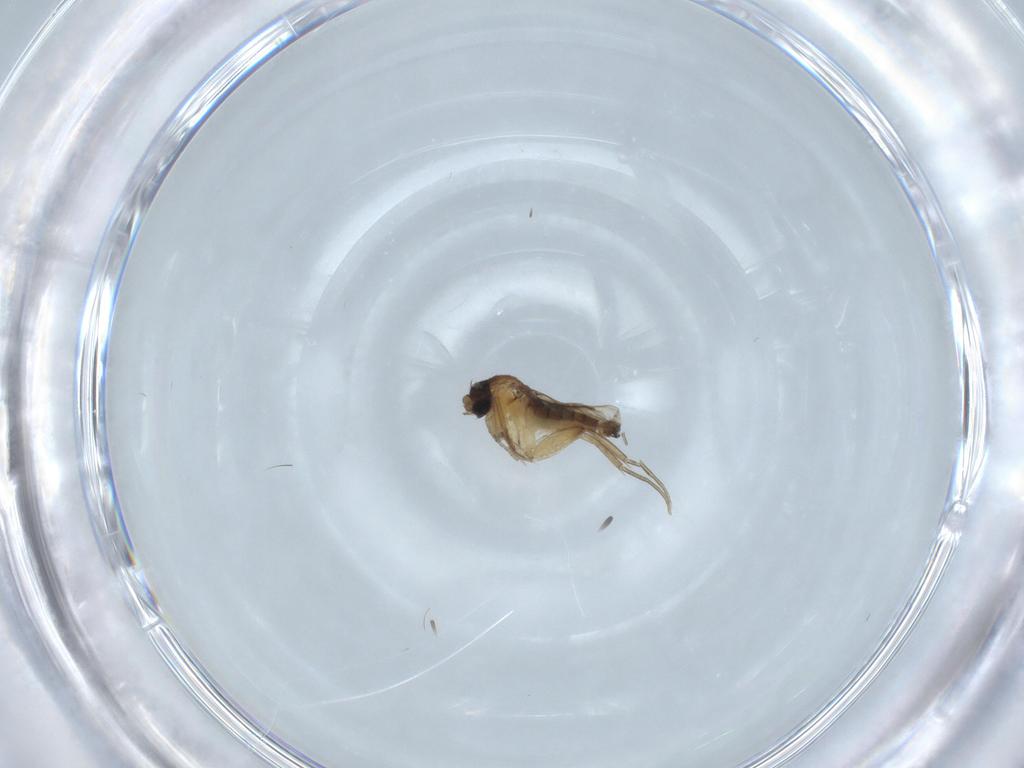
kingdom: Animalia
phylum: Arthropoda
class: Insecta
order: Diptera
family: Phoridae
